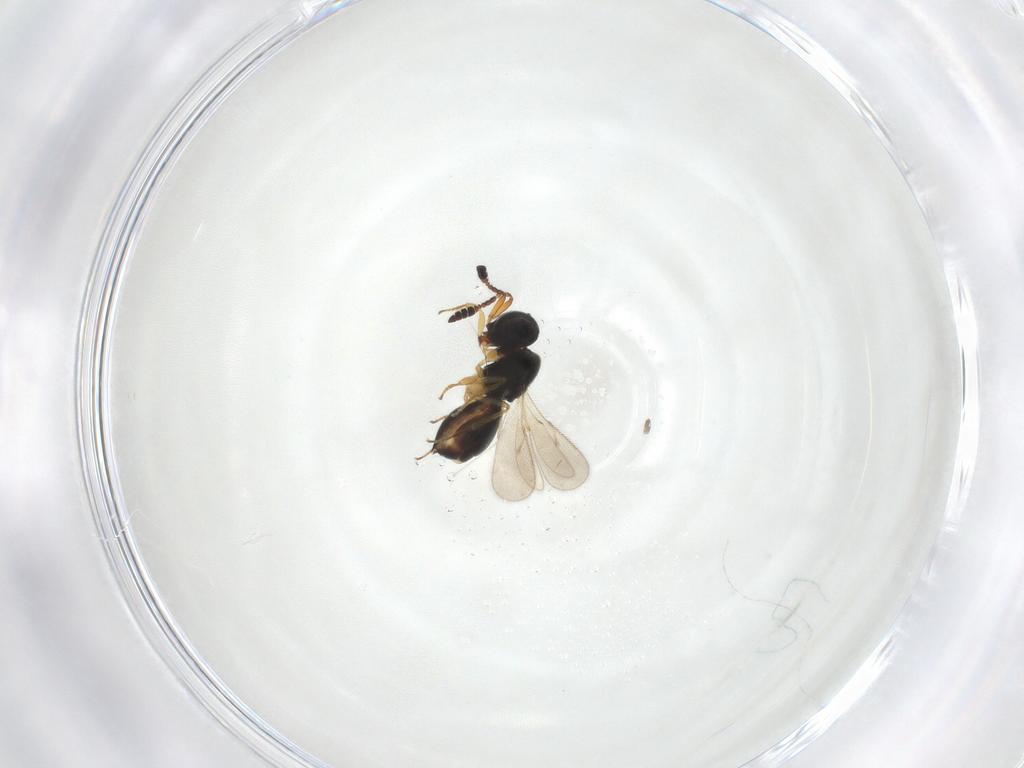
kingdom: Animalia
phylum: Arthropoda
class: Insecta
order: Hymenoptera
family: Scelionidae
